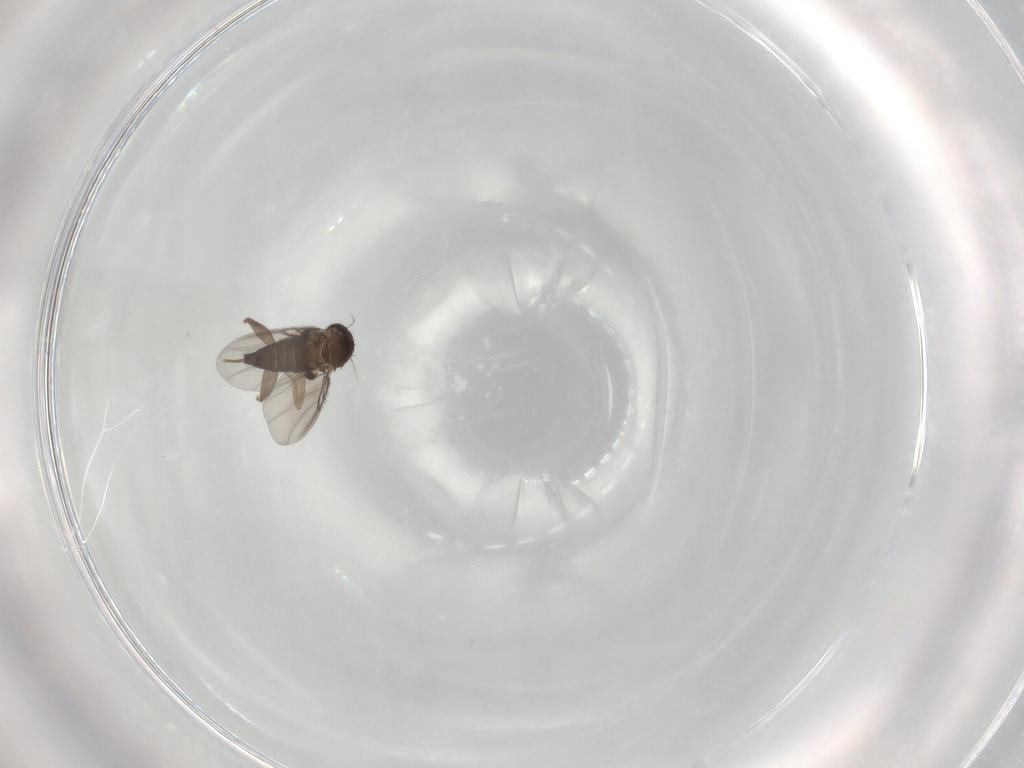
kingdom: Animalia
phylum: Arthropoda
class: Insecta
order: Diptera
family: Phoridae
